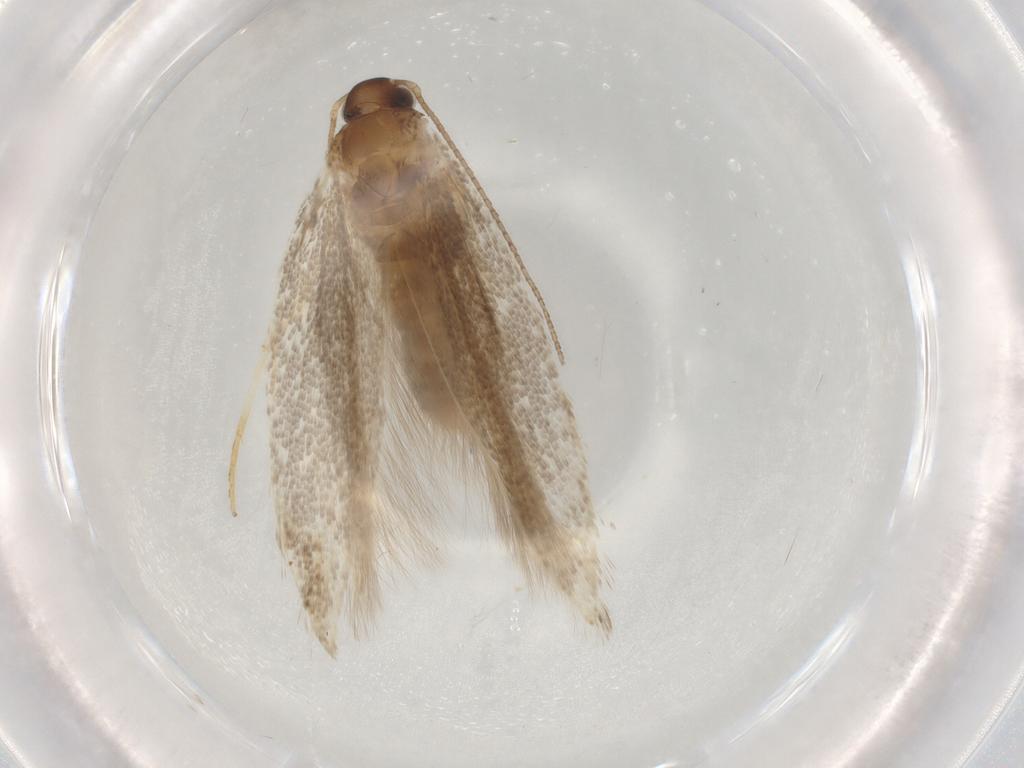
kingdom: Animalia
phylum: Arthropoda
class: Insecta
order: Lepidoptera
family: Gelechiidae
